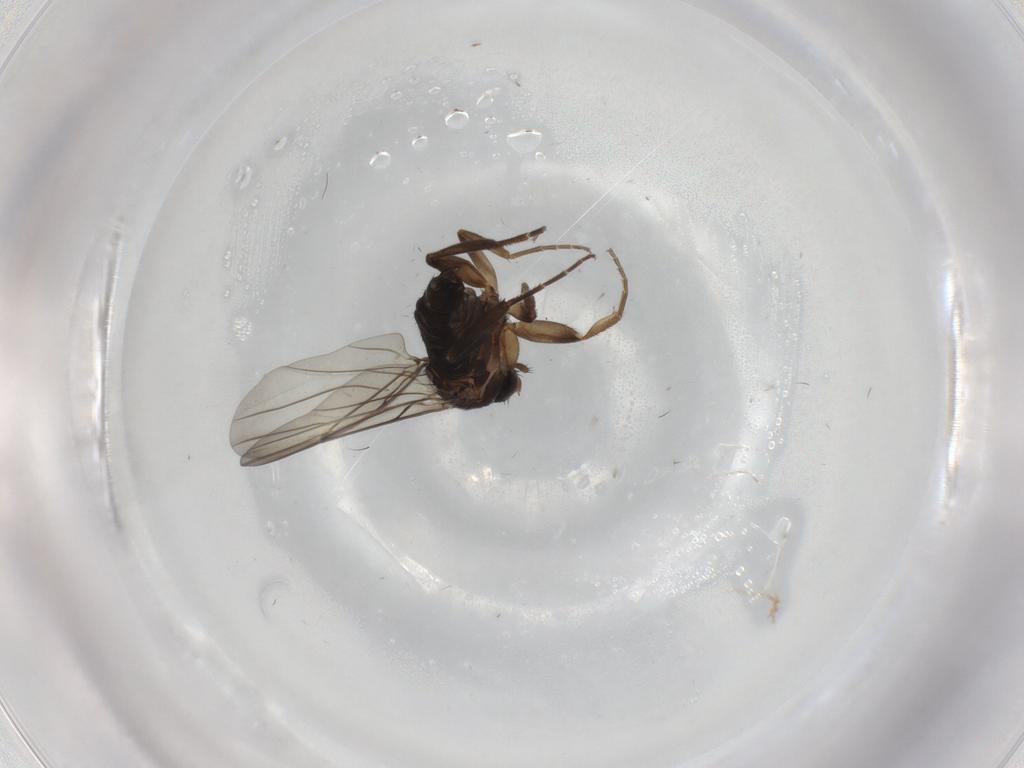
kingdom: Animalia
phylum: Arthropoda
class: Insecta
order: Diptera
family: Chironomidae
